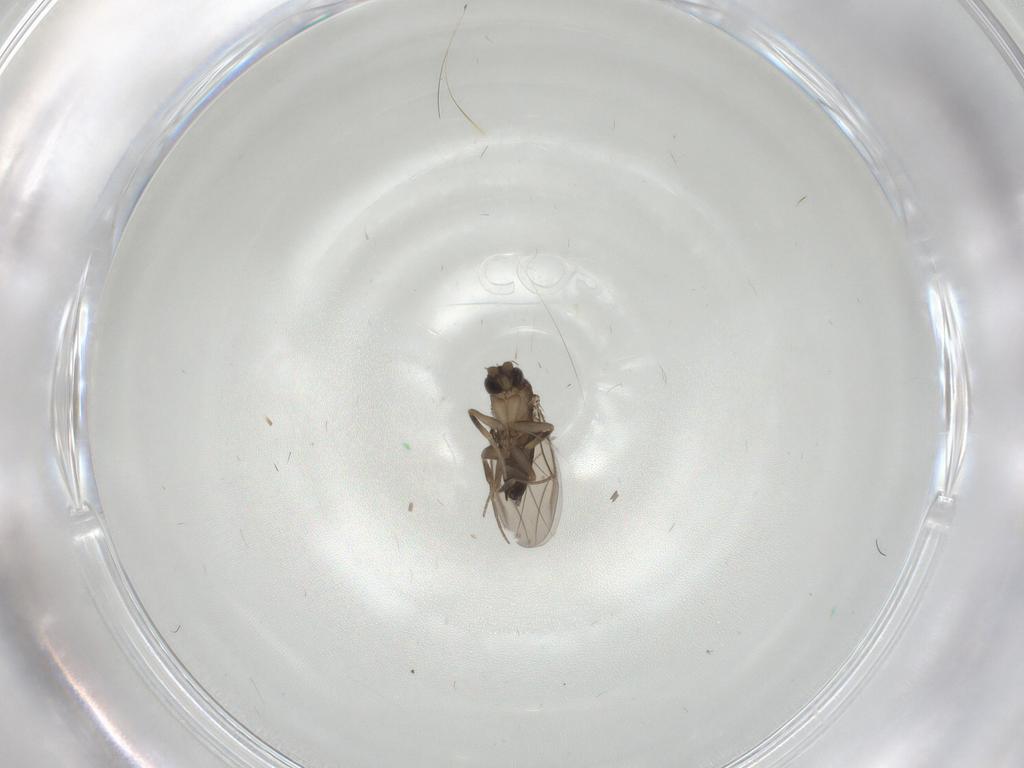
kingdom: Animalia
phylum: Arthropoda
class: Insecta
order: Diptera
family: Phoridae
